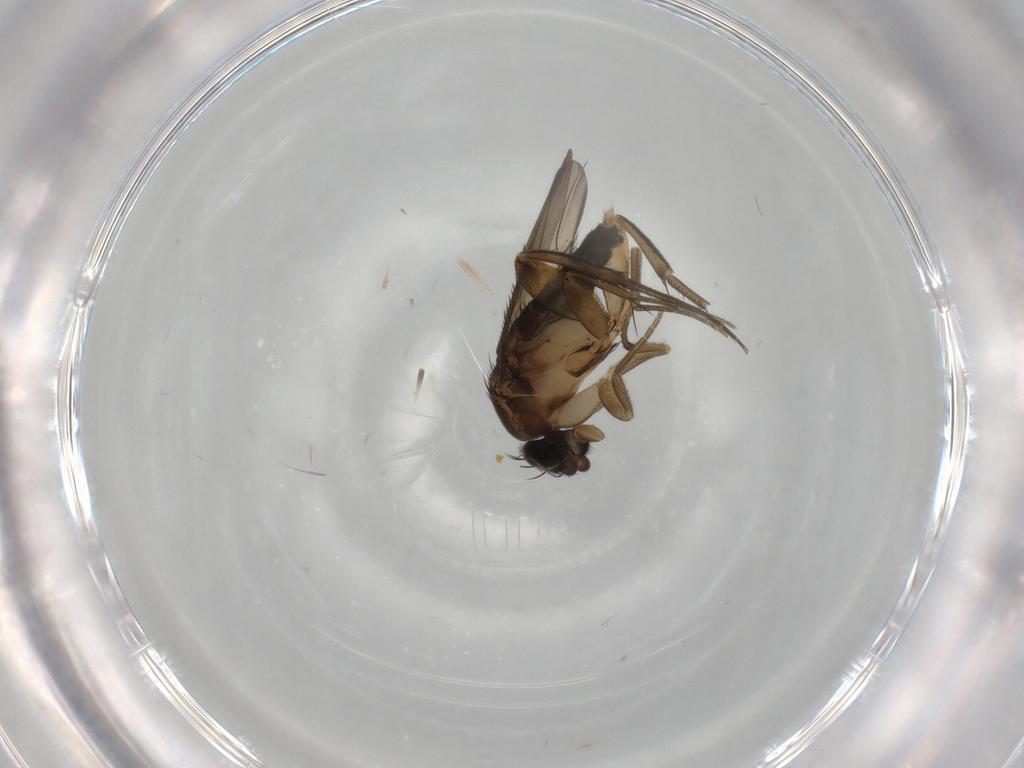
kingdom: Animalia
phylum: Arthropoda
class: Insecta
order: Diptera
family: Phoridae
